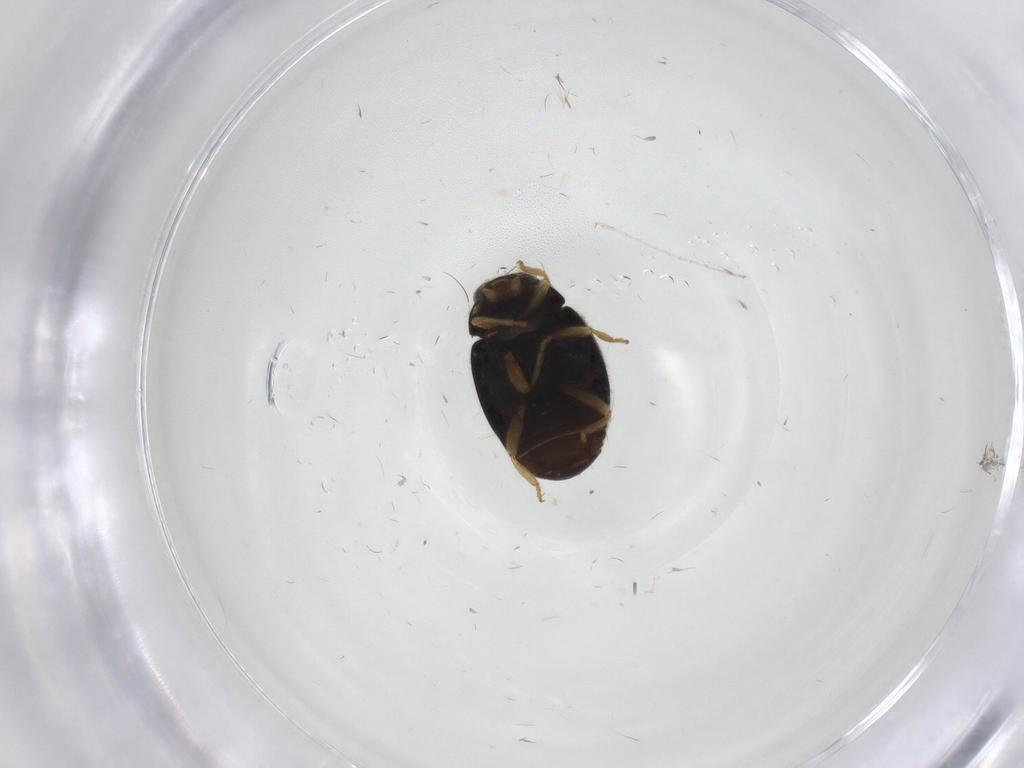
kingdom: Animalia
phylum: Arthropoda
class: Insecta
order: Coleoptera
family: Coccinellidae
